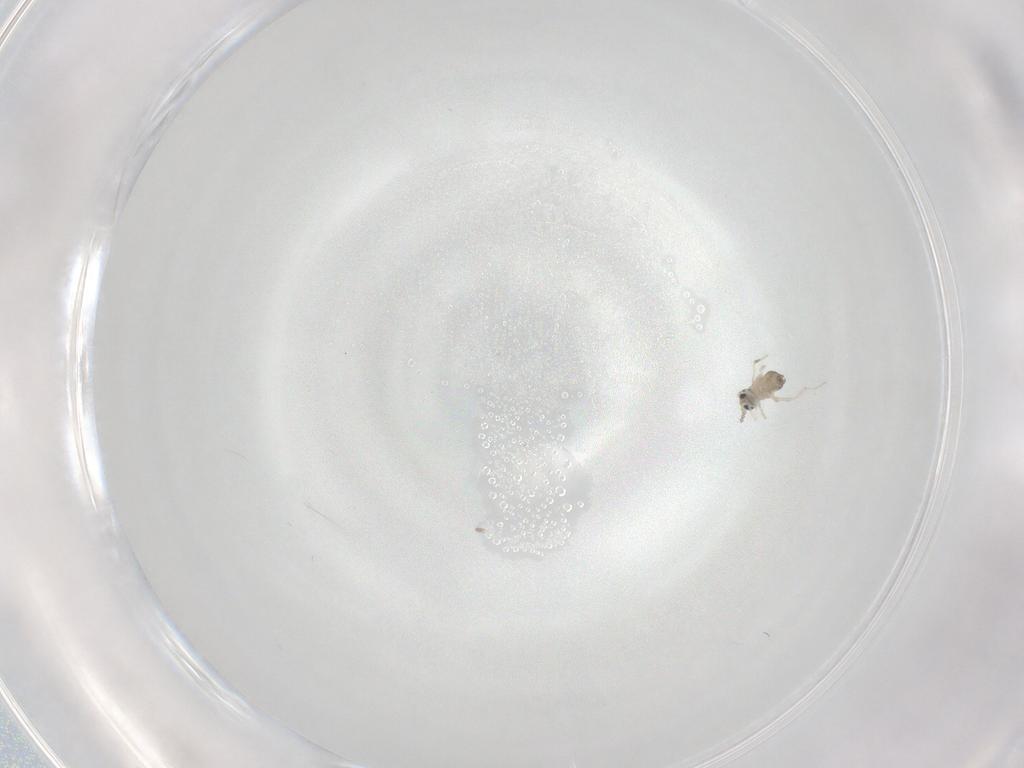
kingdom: Animalia
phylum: Arthropoda
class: Insecta
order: Diptera
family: Cecidomyiidae
